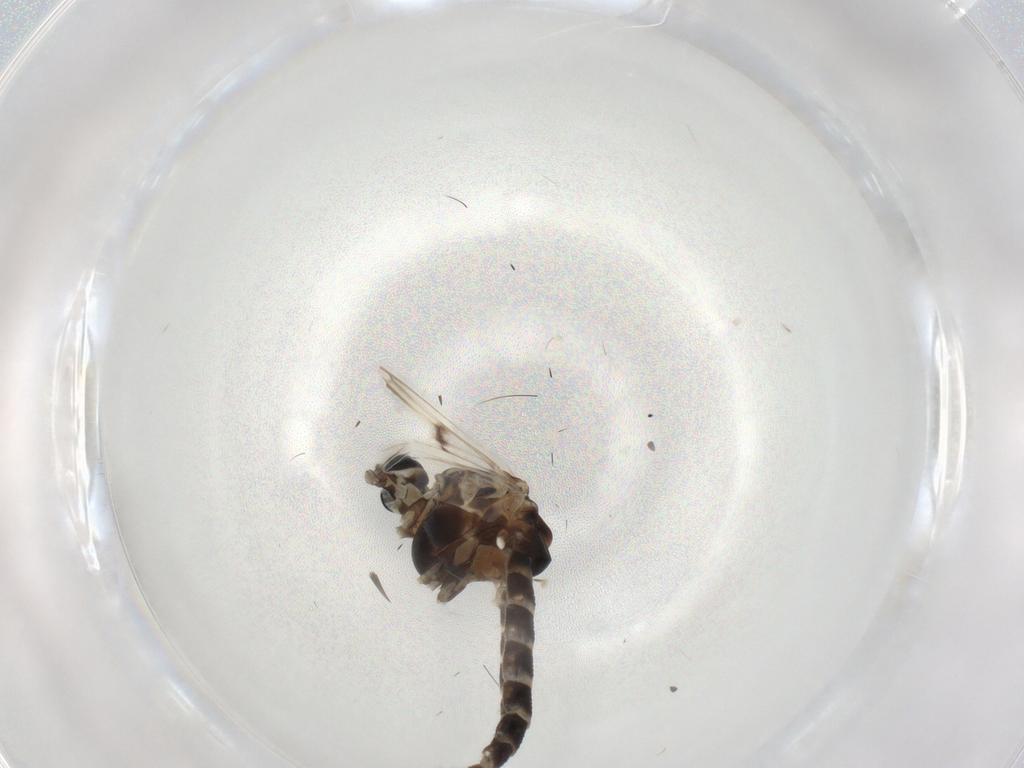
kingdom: Animalia
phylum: Arthropoda
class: Insecta
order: Diptera
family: Chironomidae
